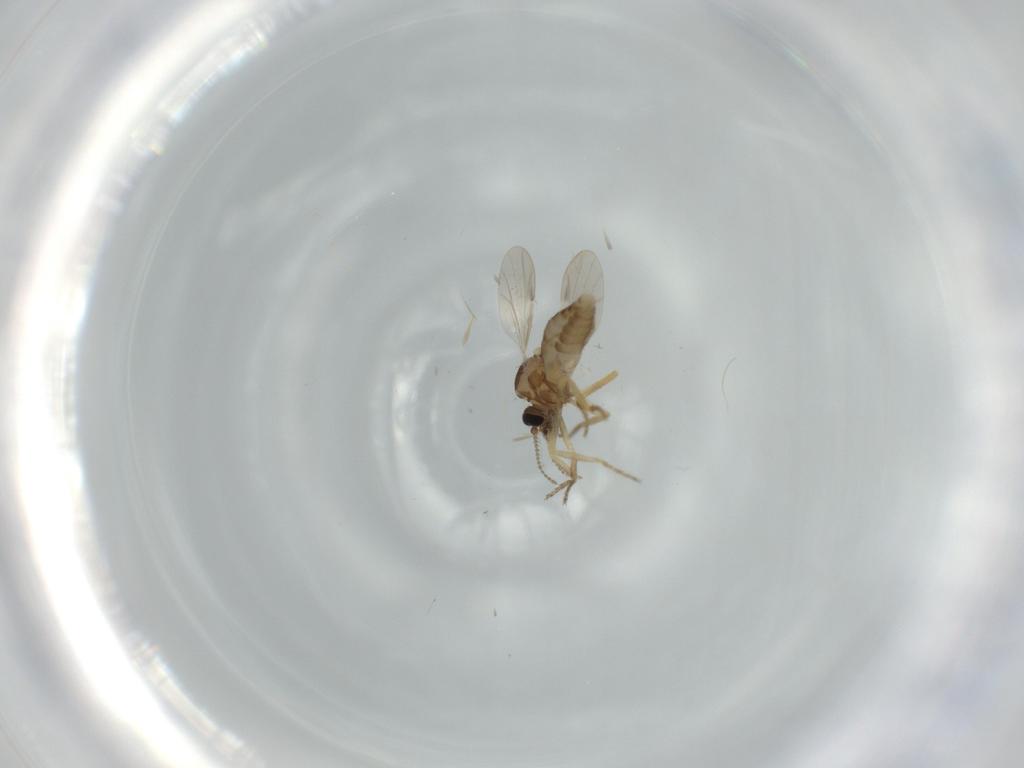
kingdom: Animalia
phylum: Arthropoda
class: Insecta
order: Diptera
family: Ceratopogonidae
